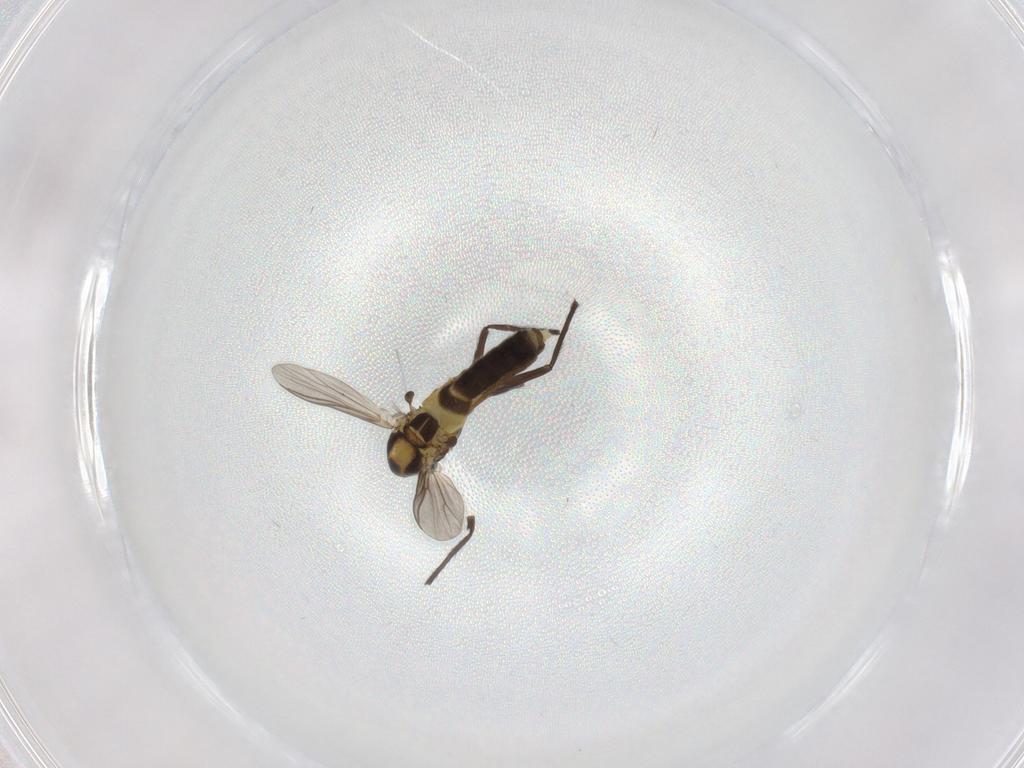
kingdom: Animalia
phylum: Arthropoda
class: Insecta
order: Diptera
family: Chironomidae
